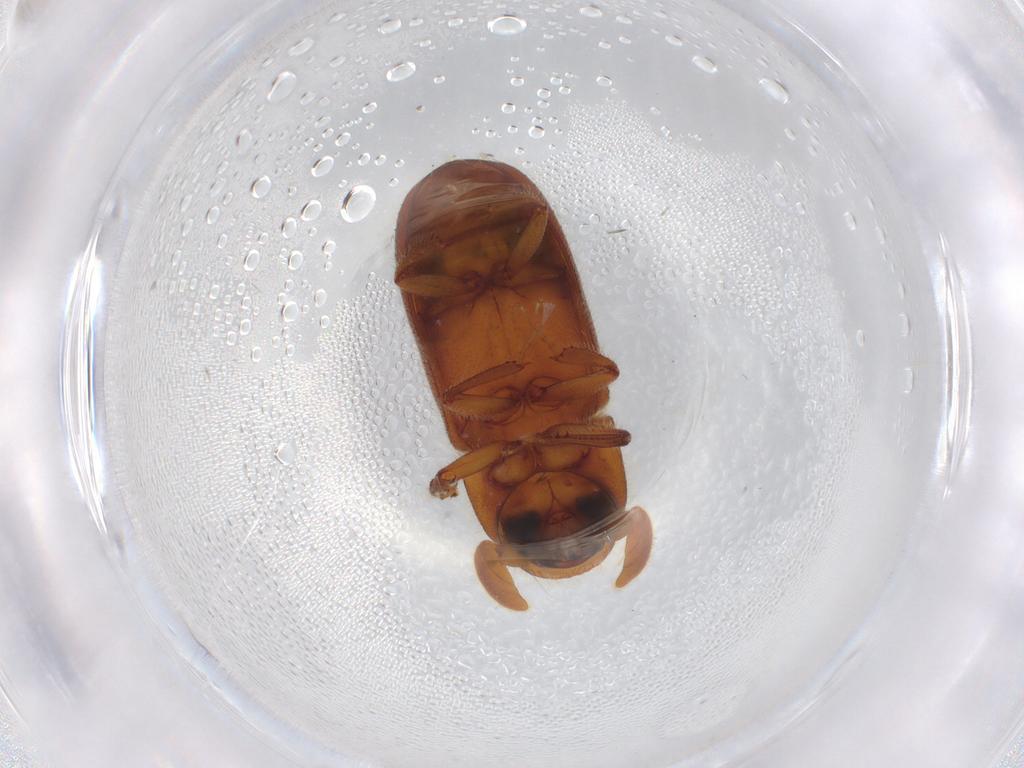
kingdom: Animalia
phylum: Arthropoda
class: Insecta
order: Coleoptera
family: Curculionidae
